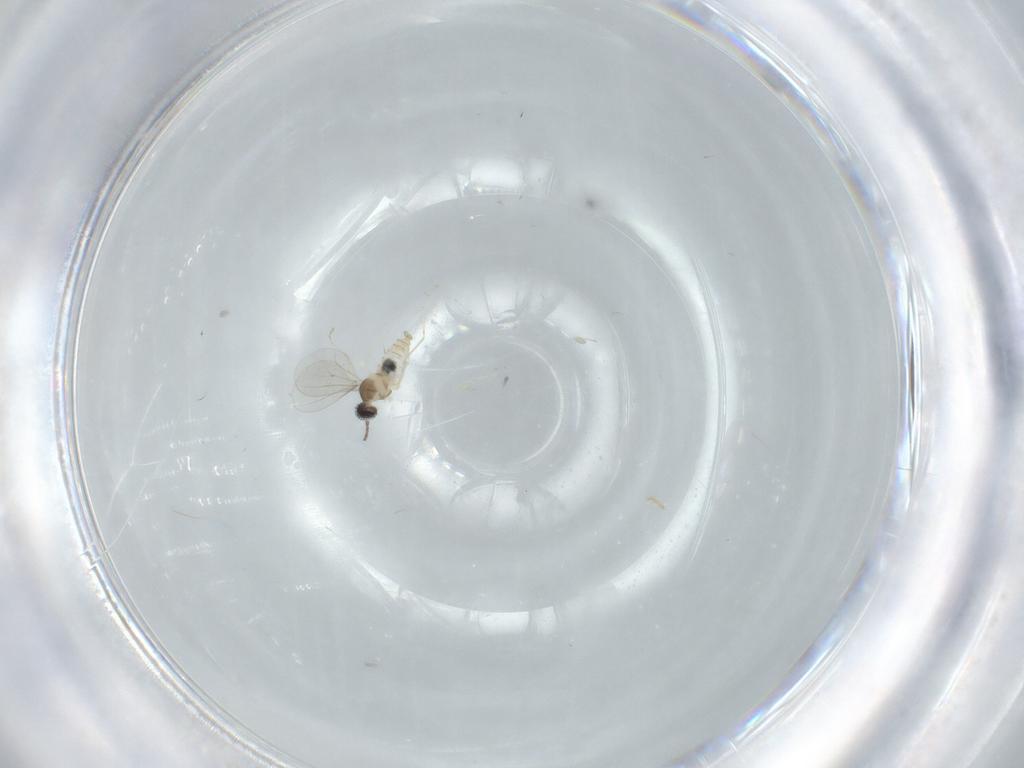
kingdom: Animalia
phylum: Arthropoda
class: Insecta
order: Diptera
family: Cecidomyiidae
